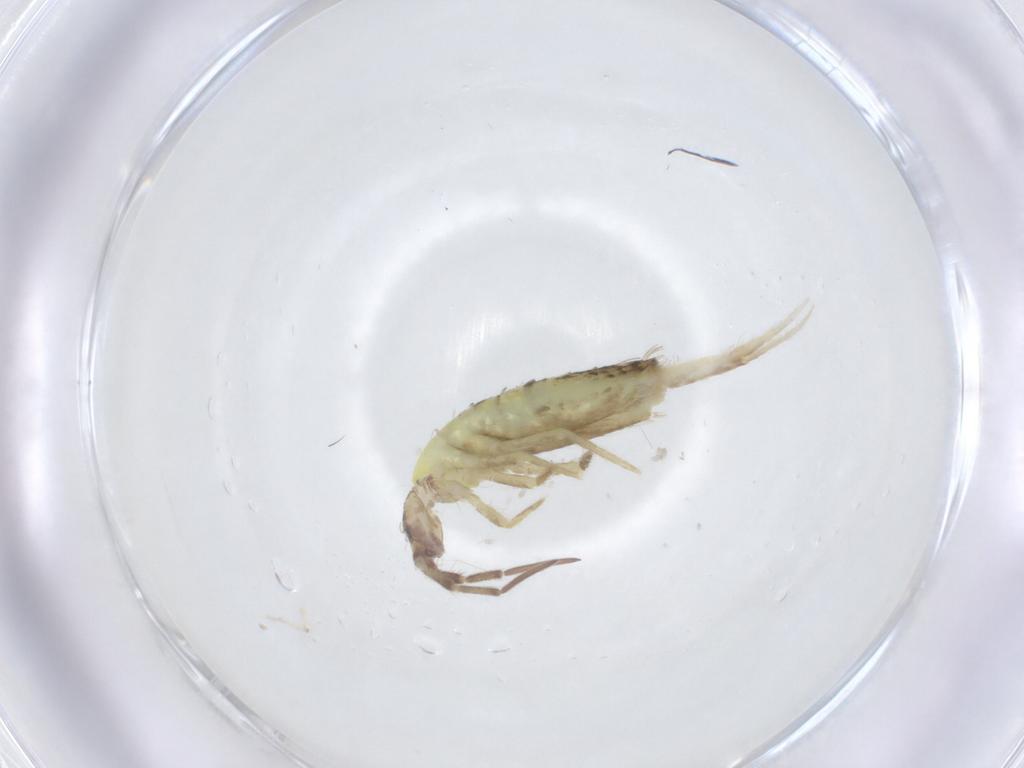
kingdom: Animalia
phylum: Arthropoda
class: Collembola
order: Entomobryomorpha
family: Entomobryidae
